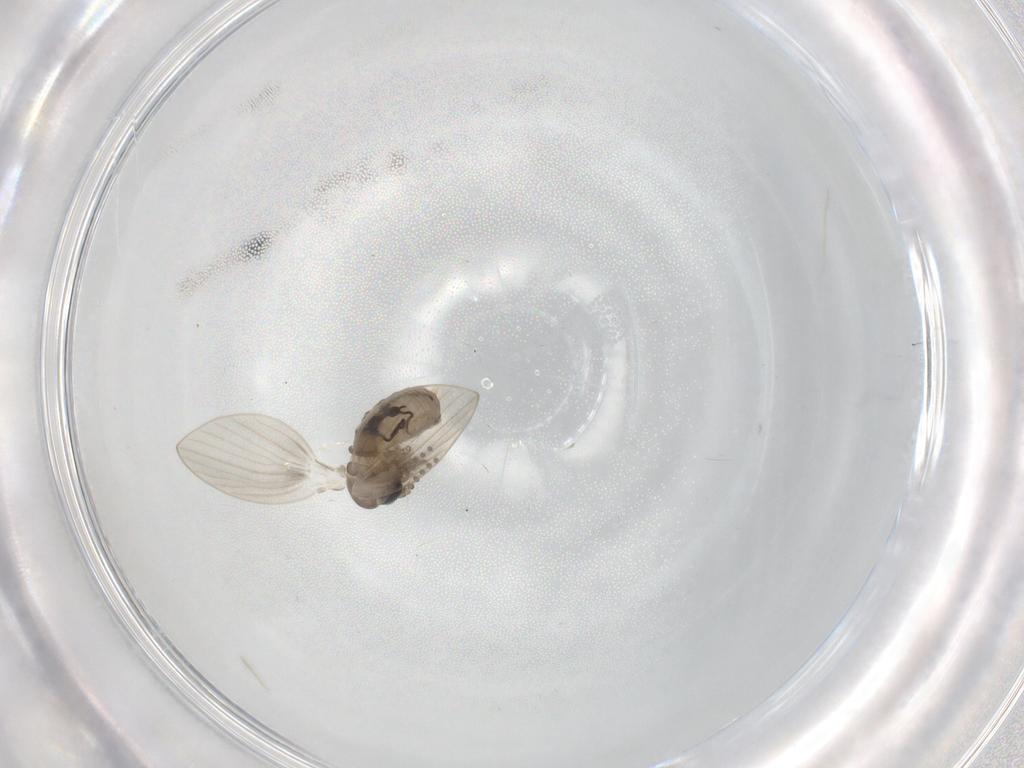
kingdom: Animalia
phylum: Arthropoda
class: Insecta
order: Diptera
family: Psychodidae
